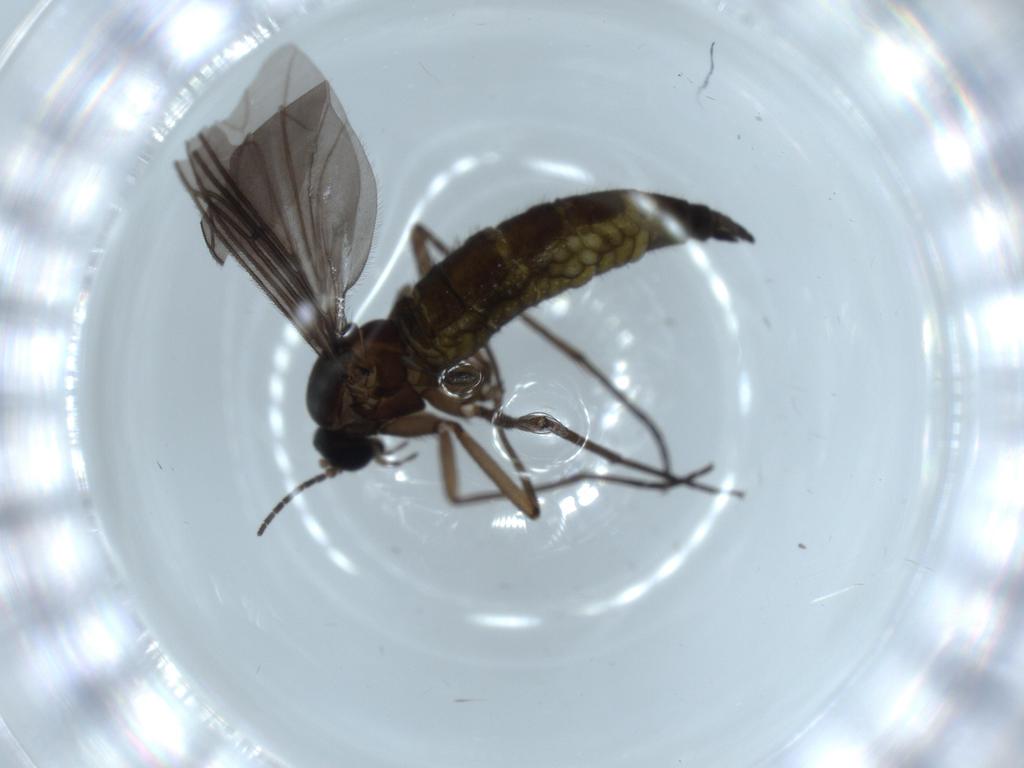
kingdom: Animalia
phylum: Arthropoda
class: Insecta
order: Diptera
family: Sciaridae
